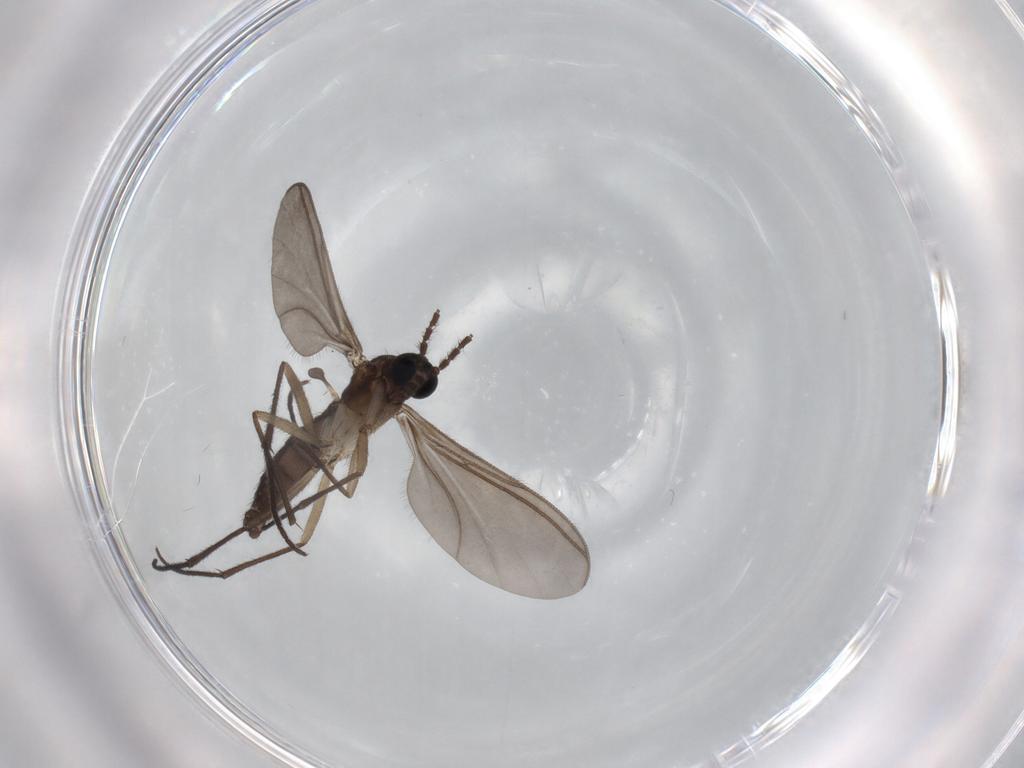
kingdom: Animalia
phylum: Arthropoda
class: Insecta
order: Diptera
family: Sciaridae
